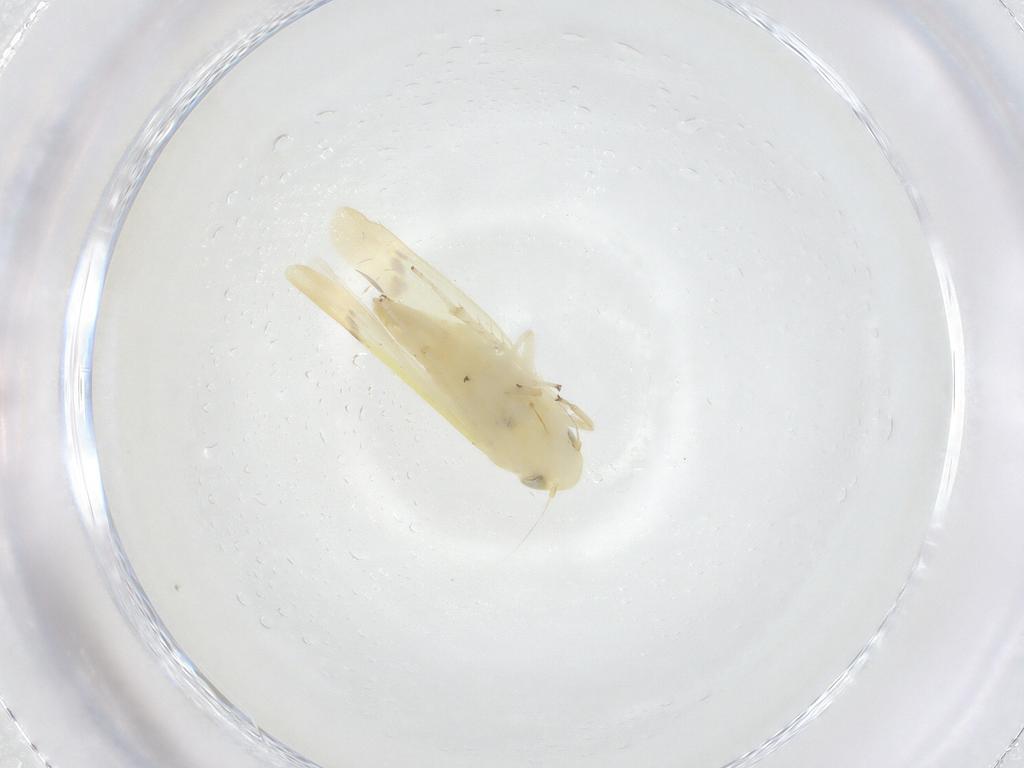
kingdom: Animalia
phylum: Arthropoda
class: Insecta
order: Hemiptera
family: Cicadellidae
